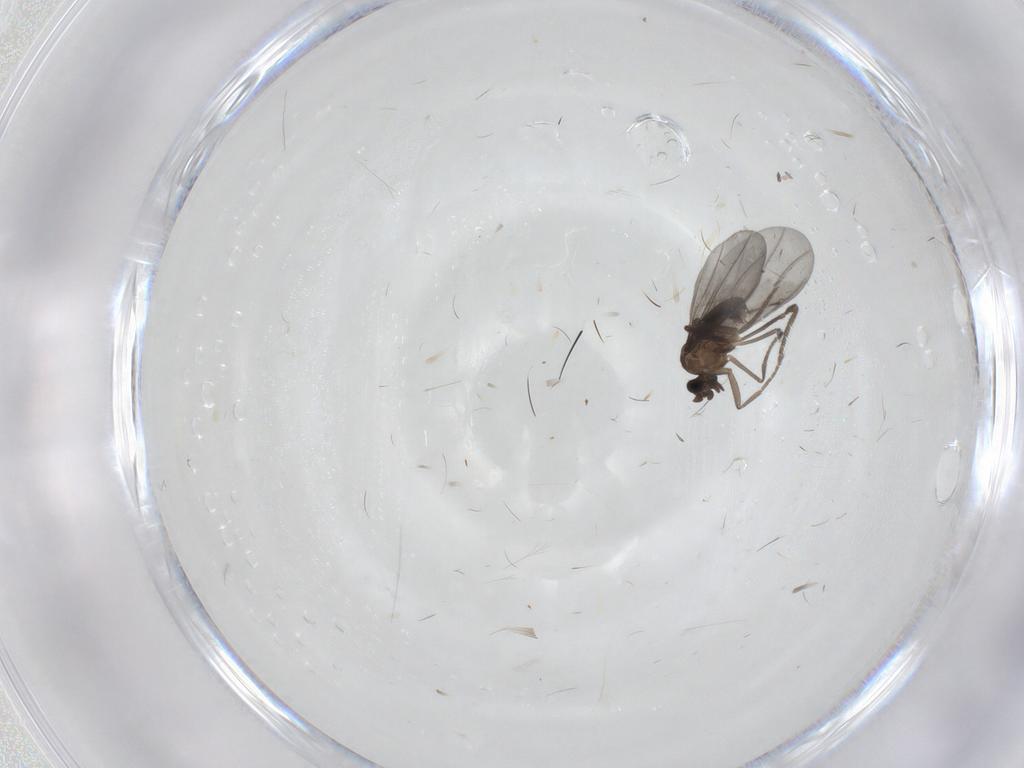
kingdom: Animalia
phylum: Arthropoda
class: Insecta
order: Diptera
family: Phoridae
